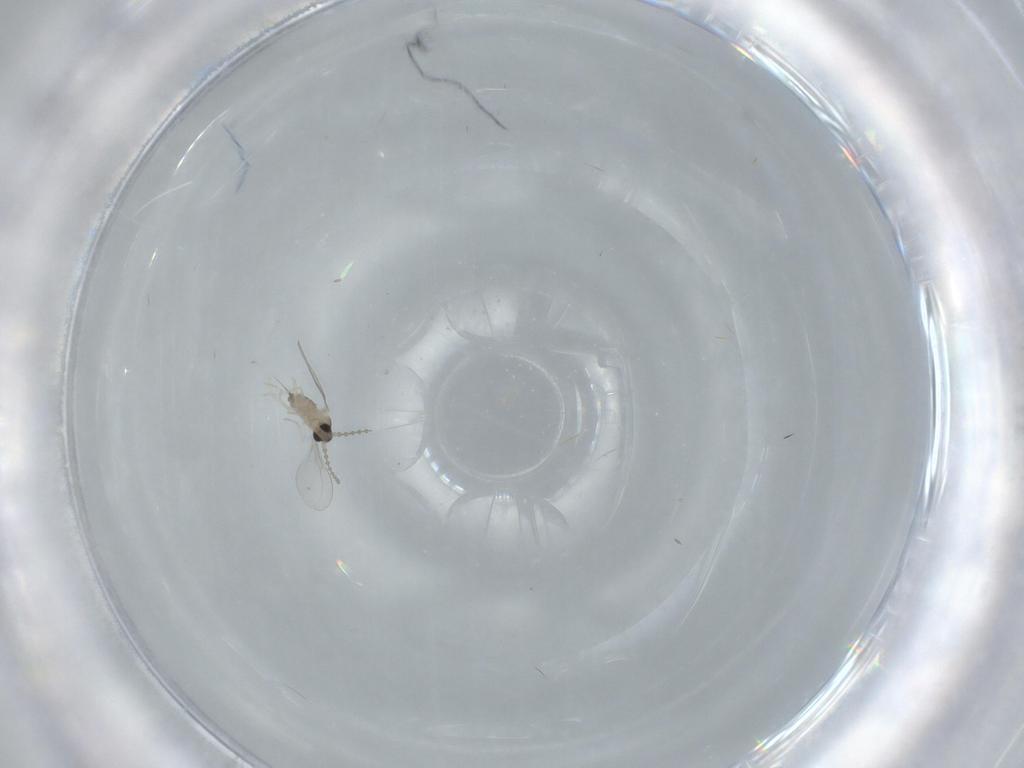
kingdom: Animalia
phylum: Arthropoda
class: Insecta
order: Diptera
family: Cecidomyiidae
